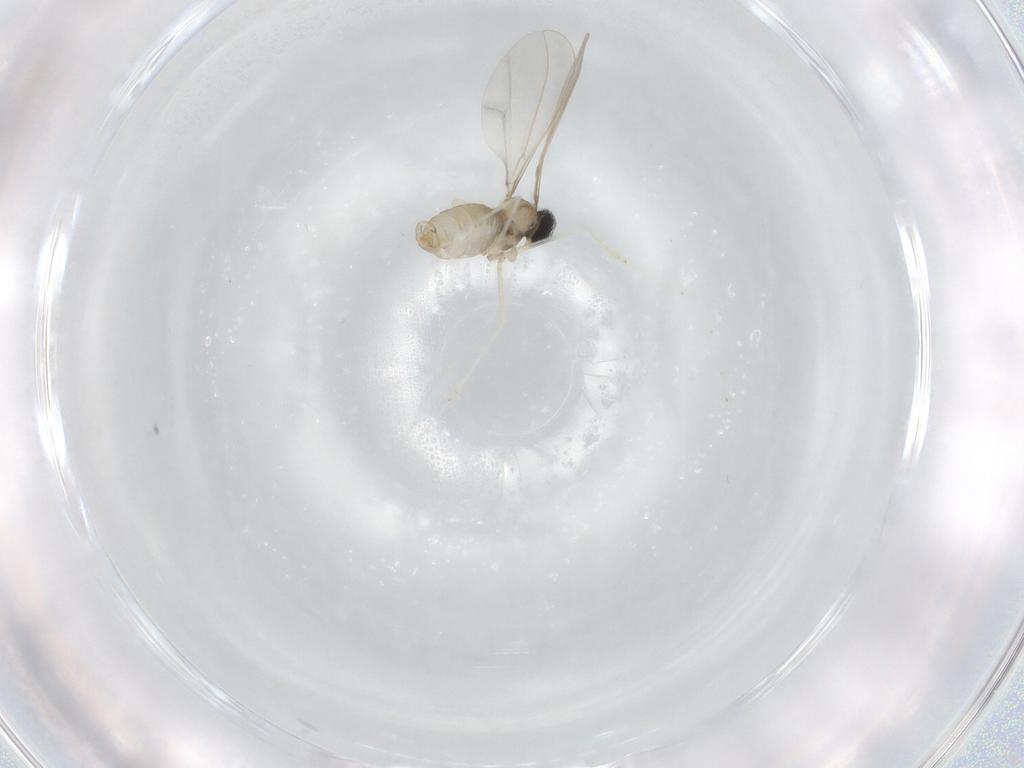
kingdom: Animalia
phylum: Arthropoda
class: Insecta
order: Diptera
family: Cecidomyiidae
